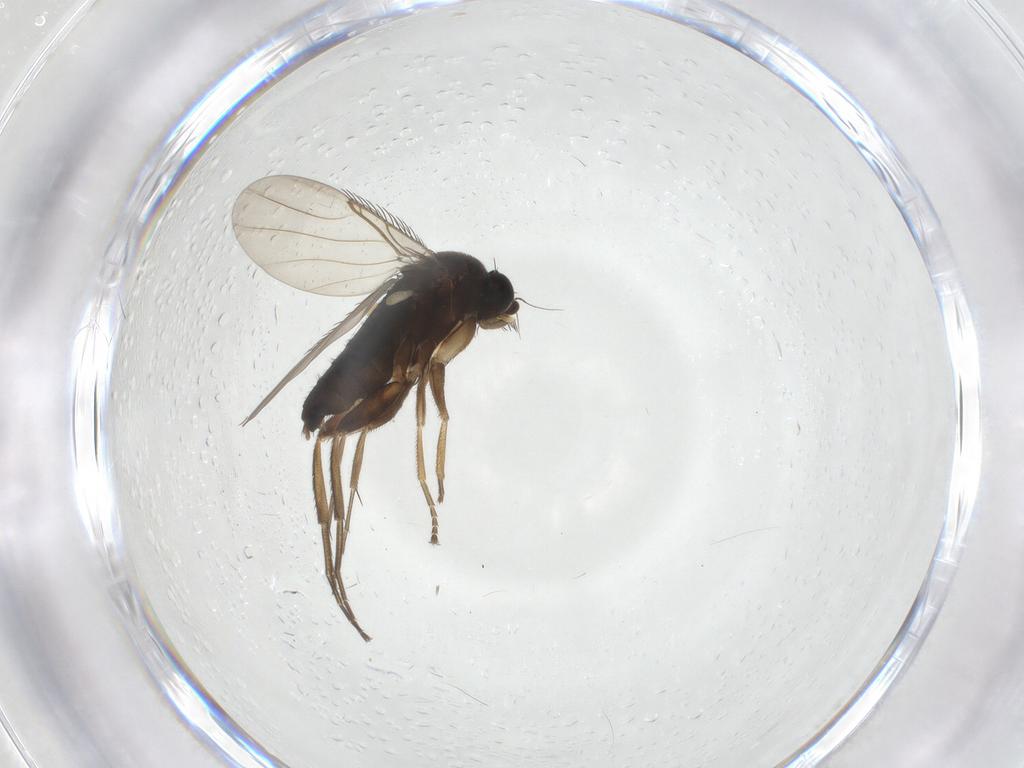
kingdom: Animalia
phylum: Arthropoda
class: Insecta
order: Diptera
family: Phoridae
